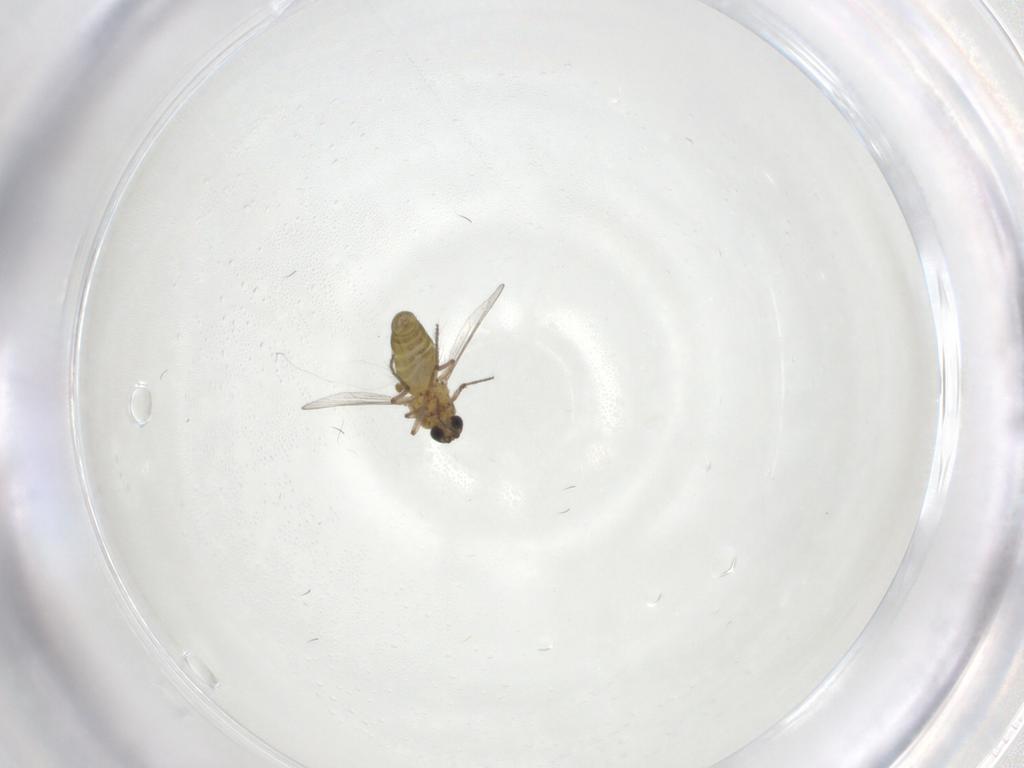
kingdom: Animalia
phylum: Arthropoda
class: Insecta
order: Diptera
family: Ceratopogonidae
